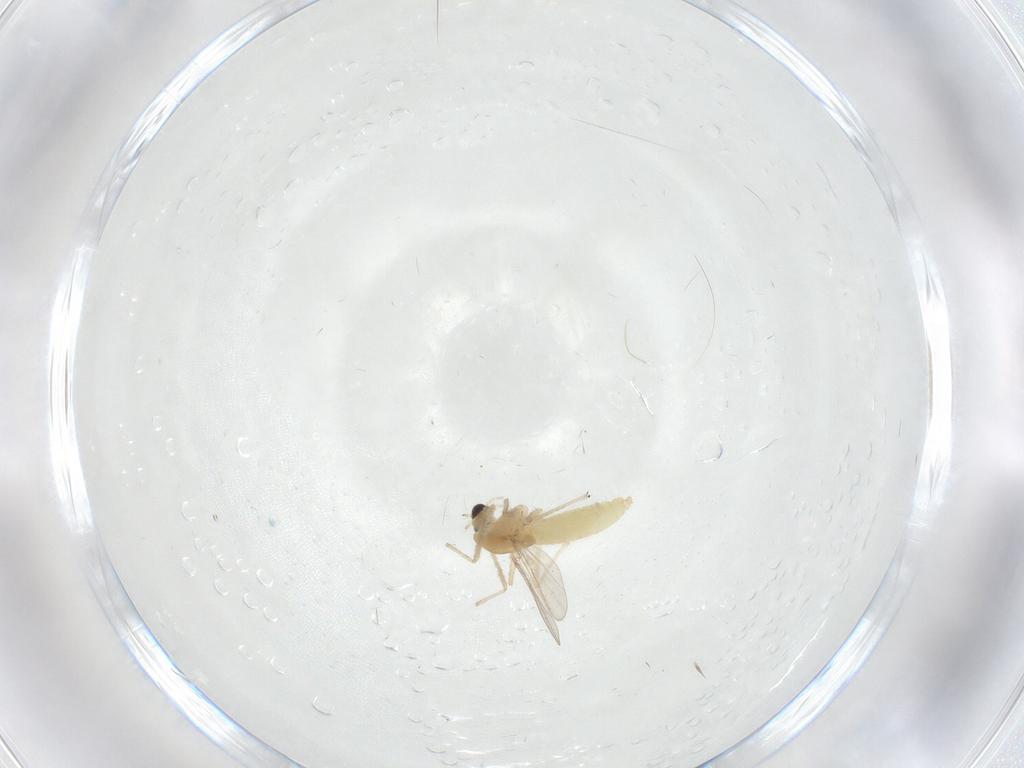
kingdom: Animalia
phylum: Arthropoda
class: Insecta
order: Diptera
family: Chironomidae
